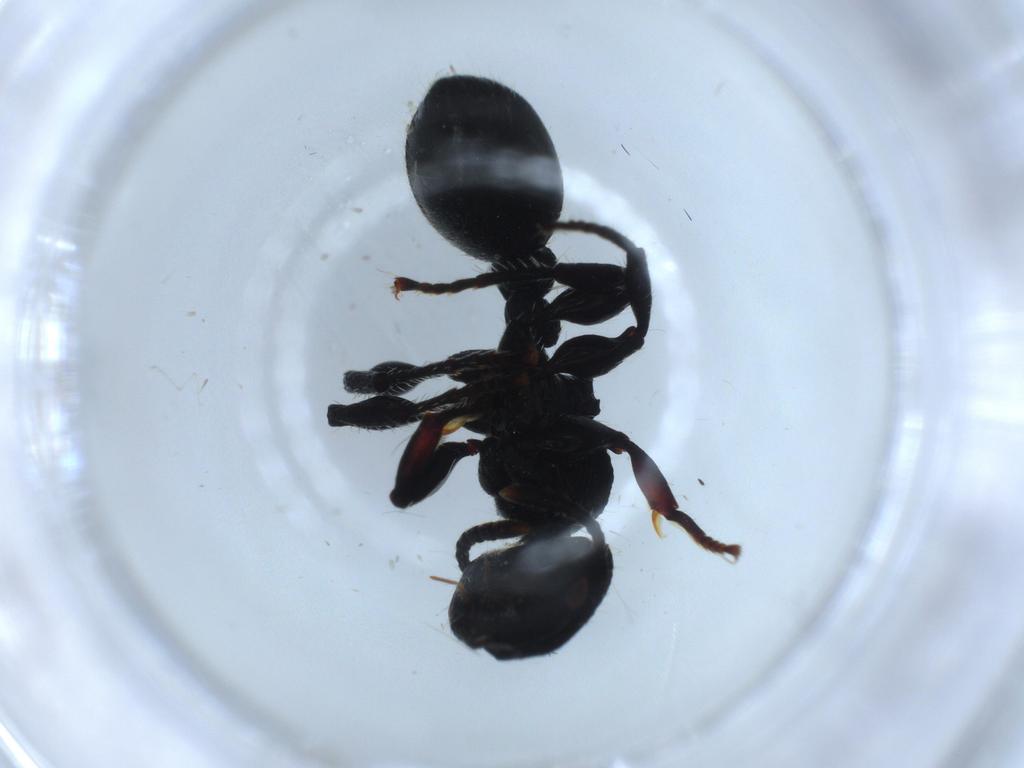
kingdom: Animalia
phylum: Arthropoda
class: Insecta
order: Hymenoptera
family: Formicidae
